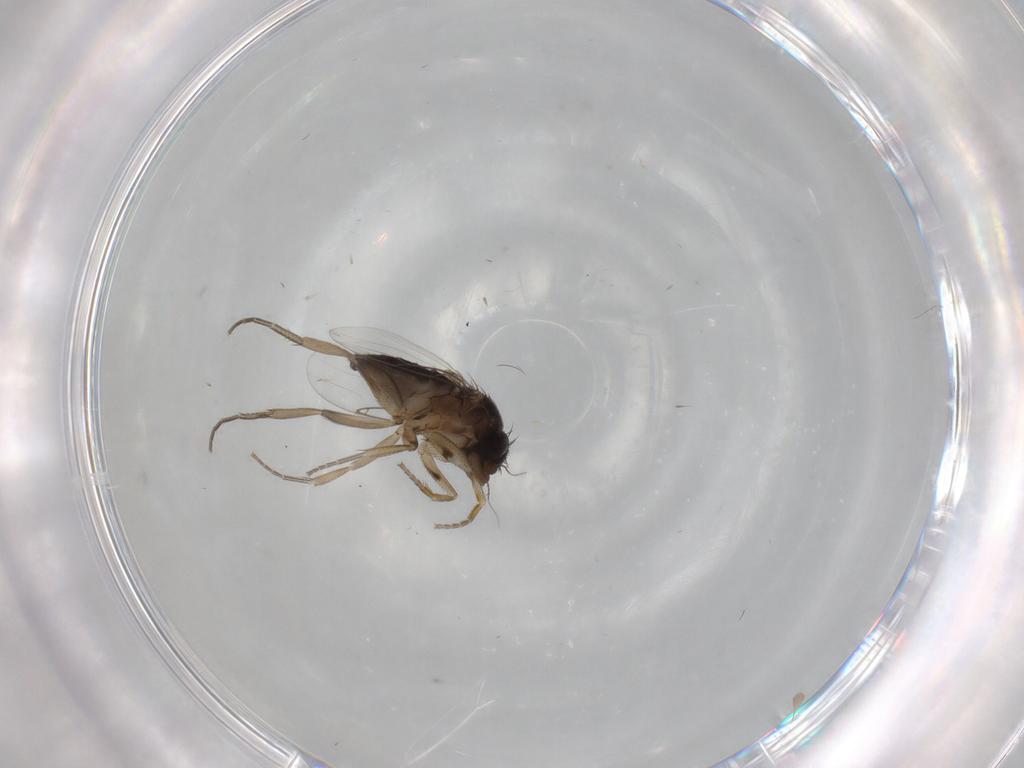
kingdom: Animalia
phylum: Arthropoda
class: Insecta
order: Diptera
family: Phoridae
